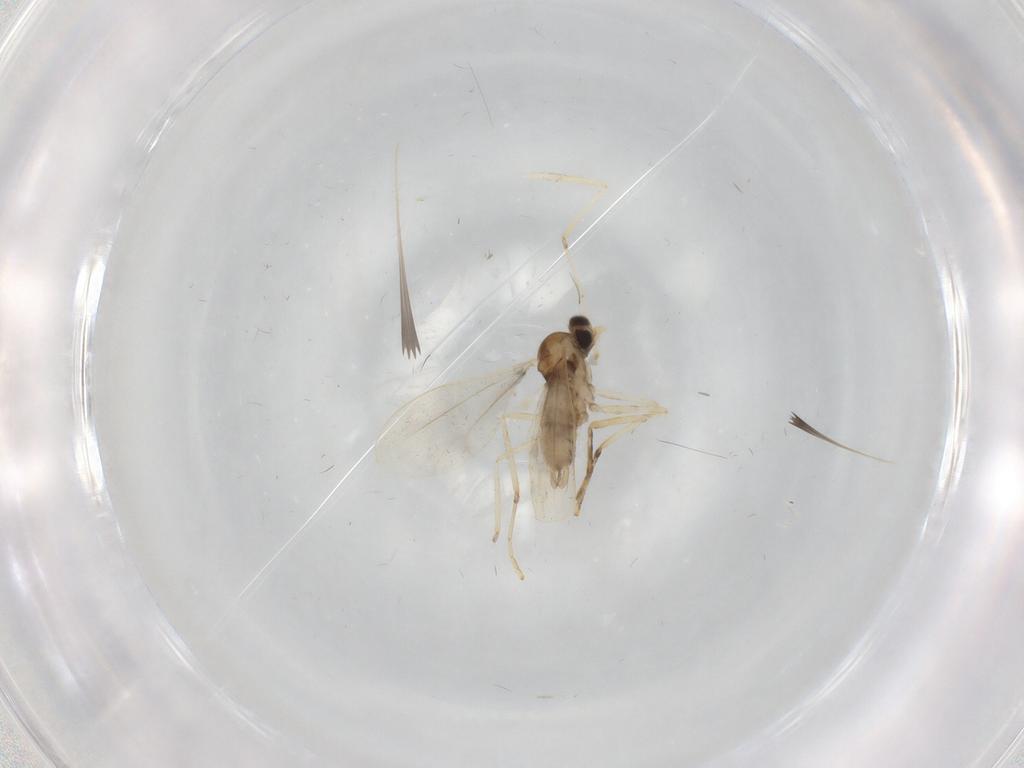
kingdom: Animalia
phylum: Arthropoda
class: Insecta
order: Diptera
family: Cecidomyiidae
